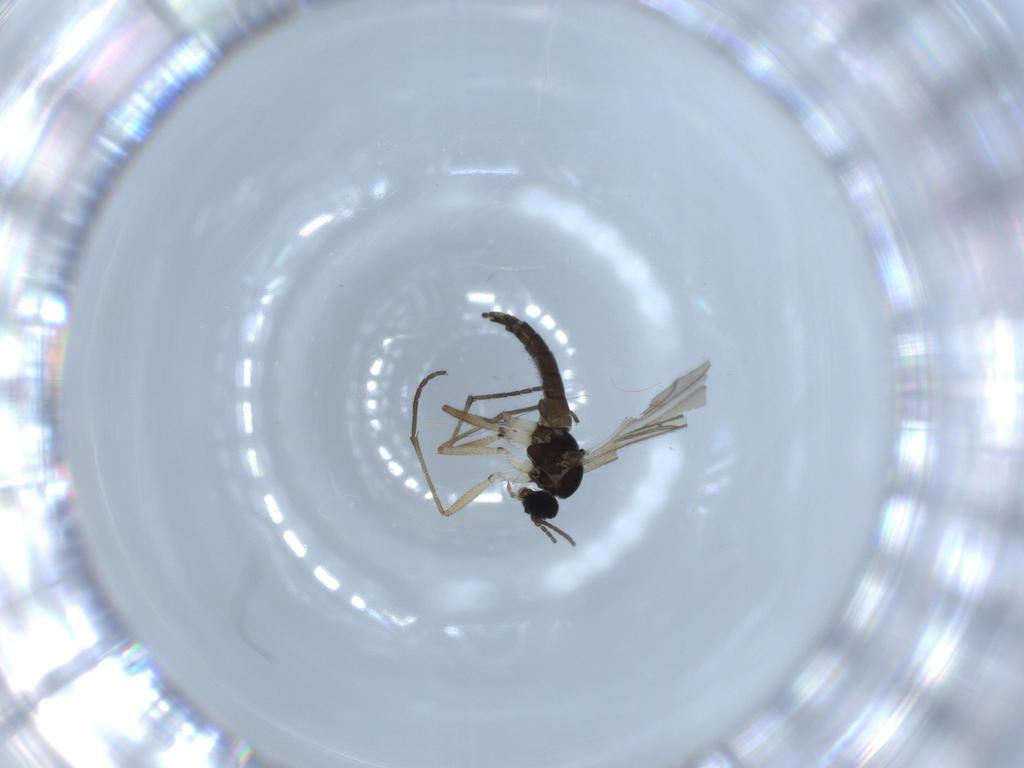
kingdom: Animalia
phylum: Arthropoda
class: Insecta
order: Diptera
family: Sciaridae
